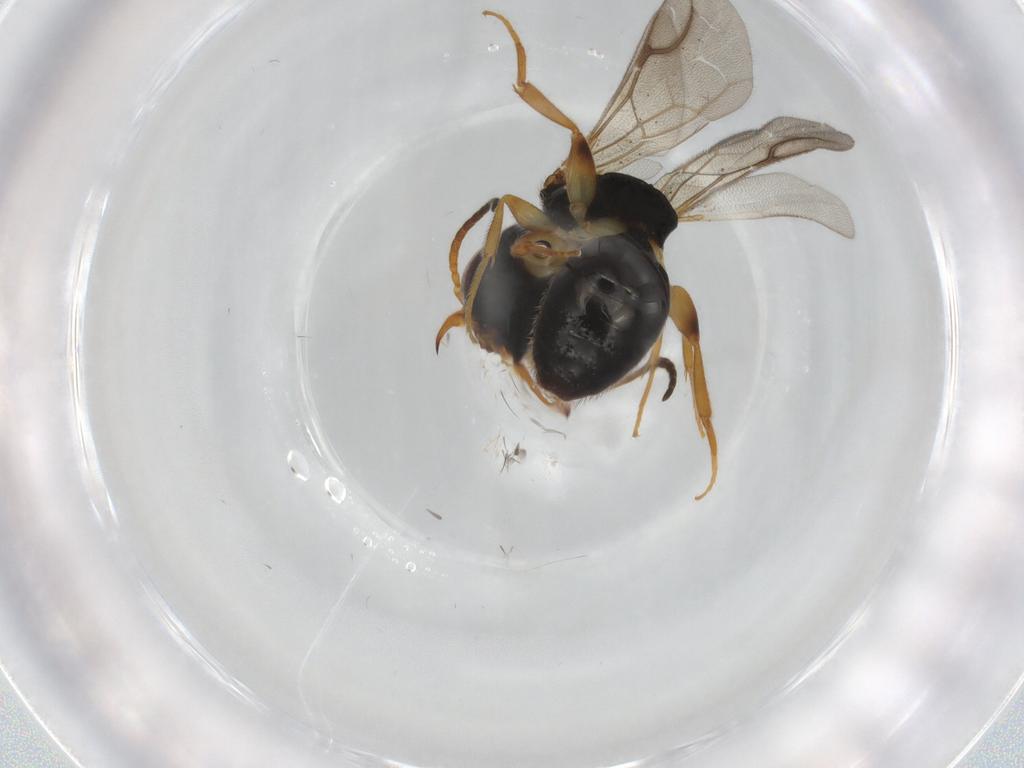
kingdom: Animalia
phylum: Arthropoda
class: Insecta
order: Hymenoptera
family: Bethylidae
